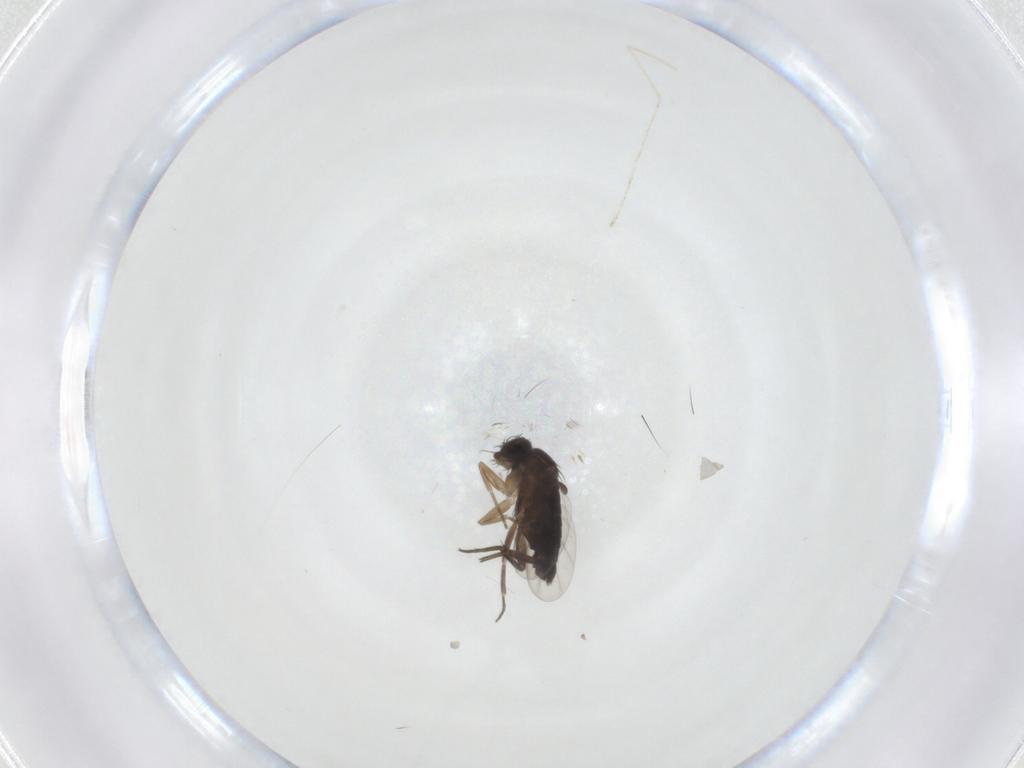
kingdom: Animalia
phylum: Arthropoda
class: Insecta
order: Diptera
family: Cecidomyiidae
